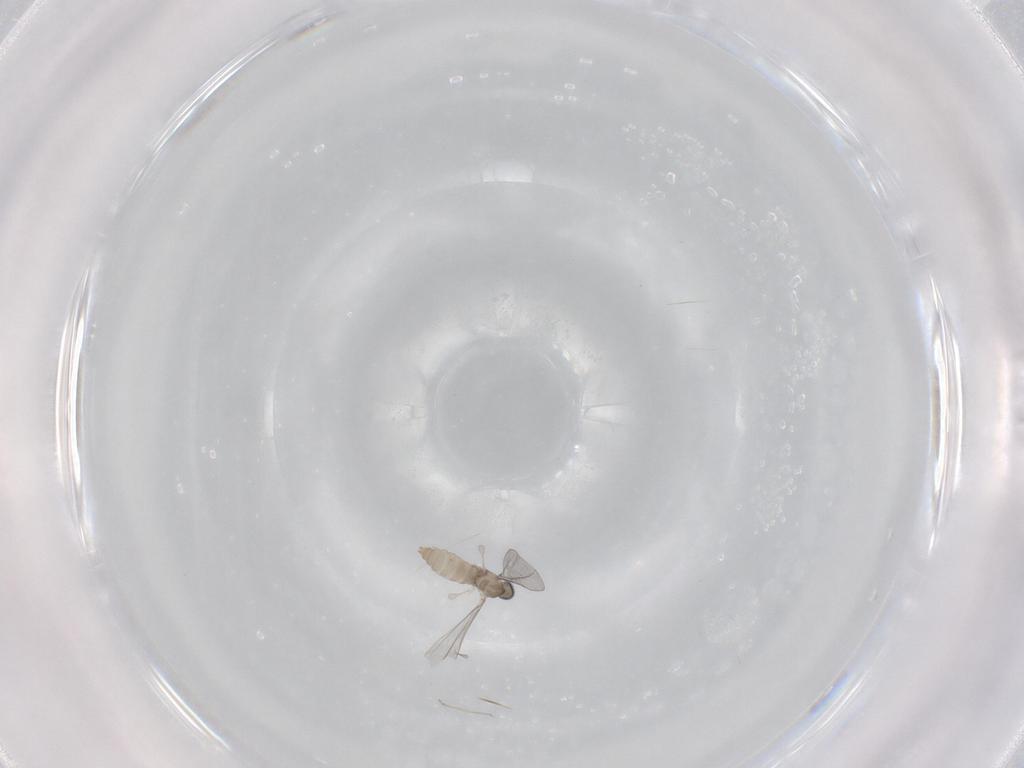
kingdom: Animalia
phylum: Arthropoda
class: Insecta
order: Diptera
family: Cecidomyiidae
